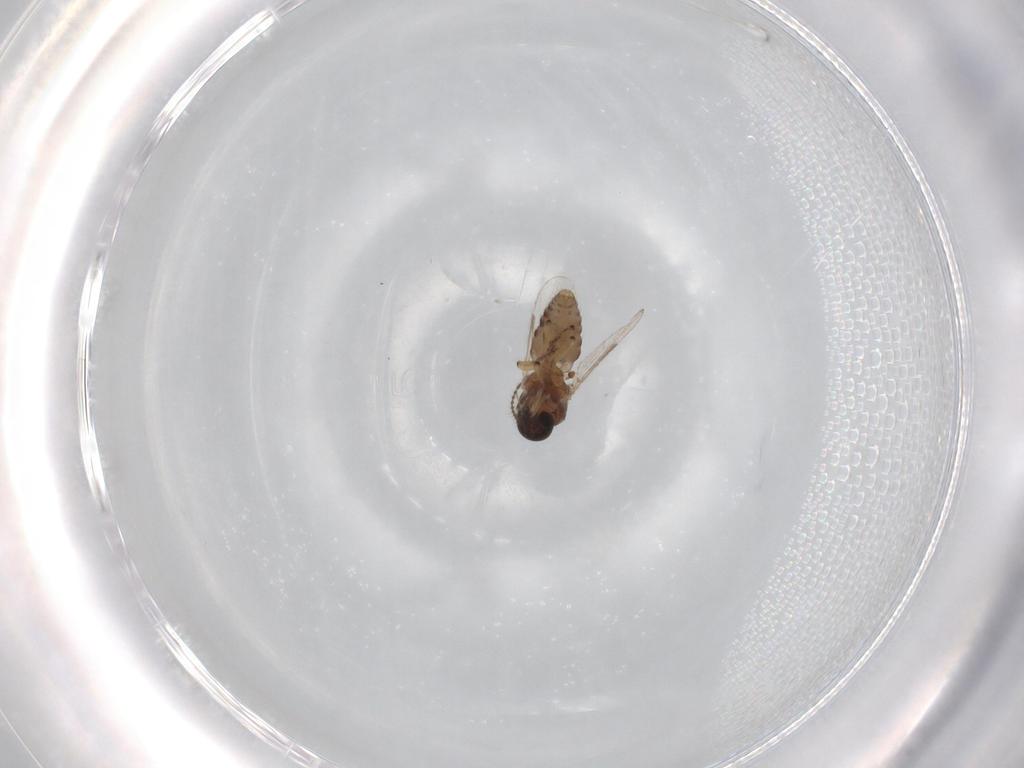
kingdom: Animalia
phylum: Arthropoda
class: Insecta
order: Diptera
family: Ceratopogonidae
